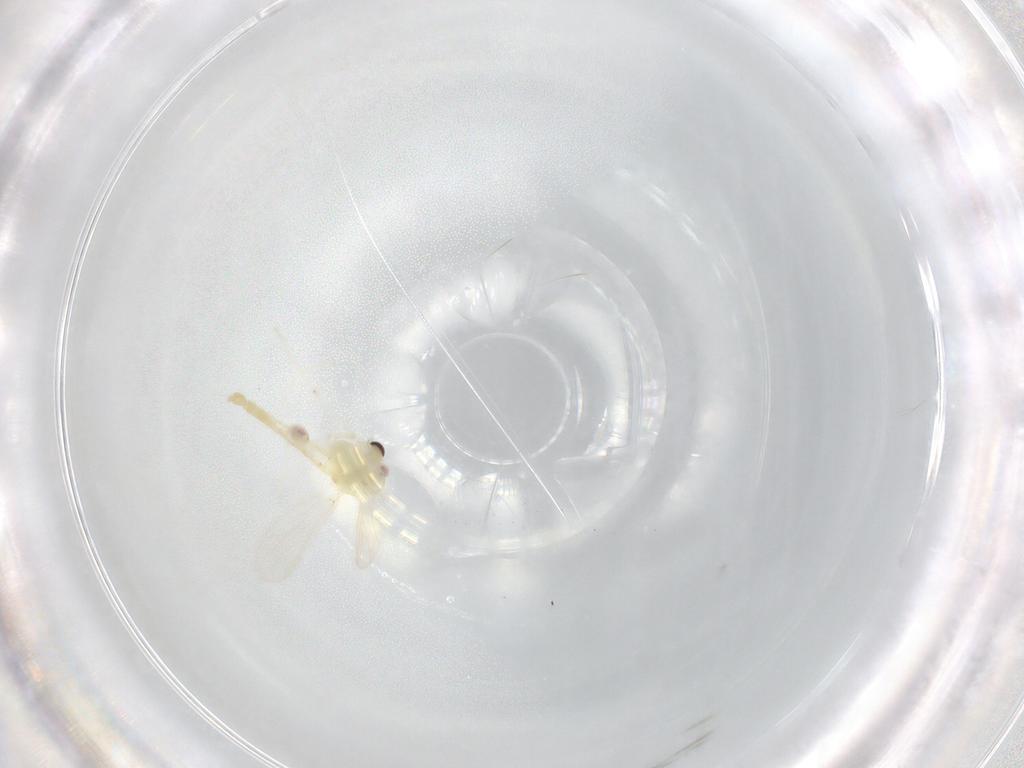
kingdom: Animalia
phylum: Arthropoda
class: Insecta
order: Diptera
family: Chironomidae
